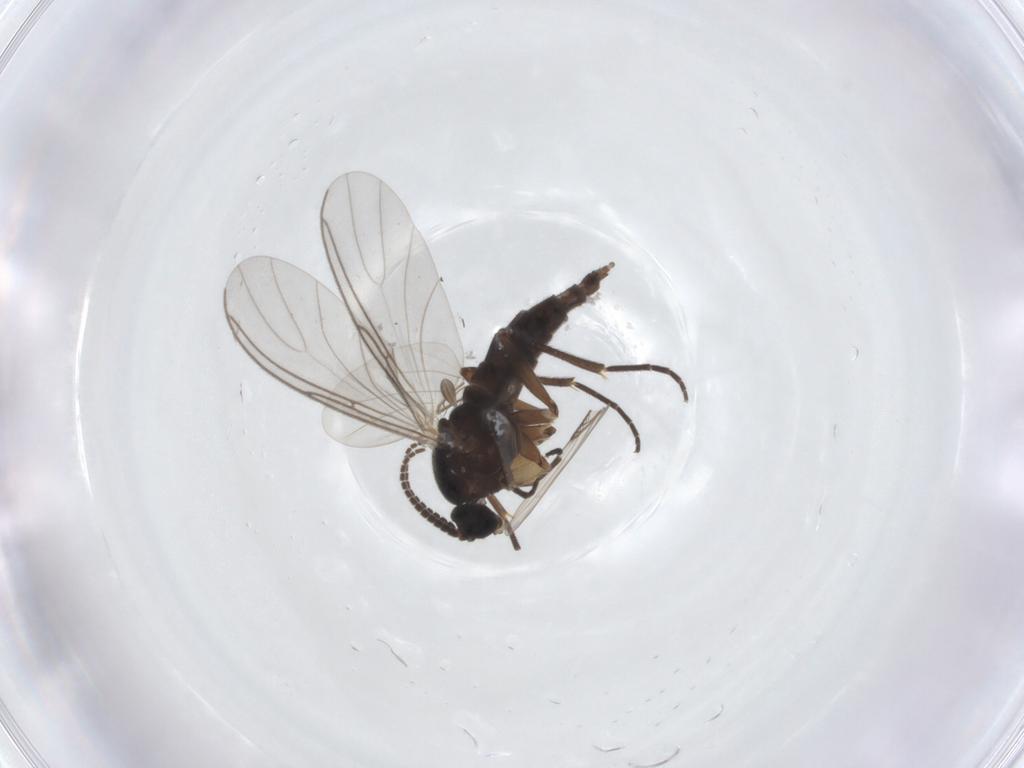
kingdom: Animalia
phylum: Arthropoda
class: Insecta
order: Diptera
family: Sciaridae
